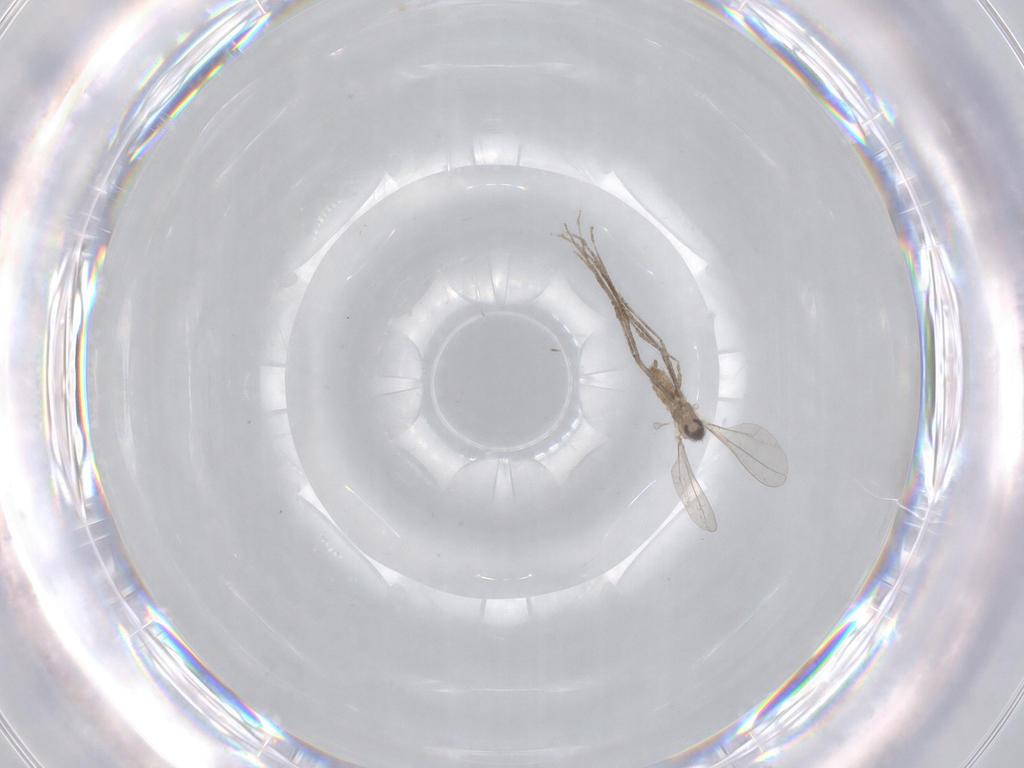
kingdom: Animalia
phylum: Arthropoda
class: Insecta
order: Diptera
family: Cecidomyiidae
